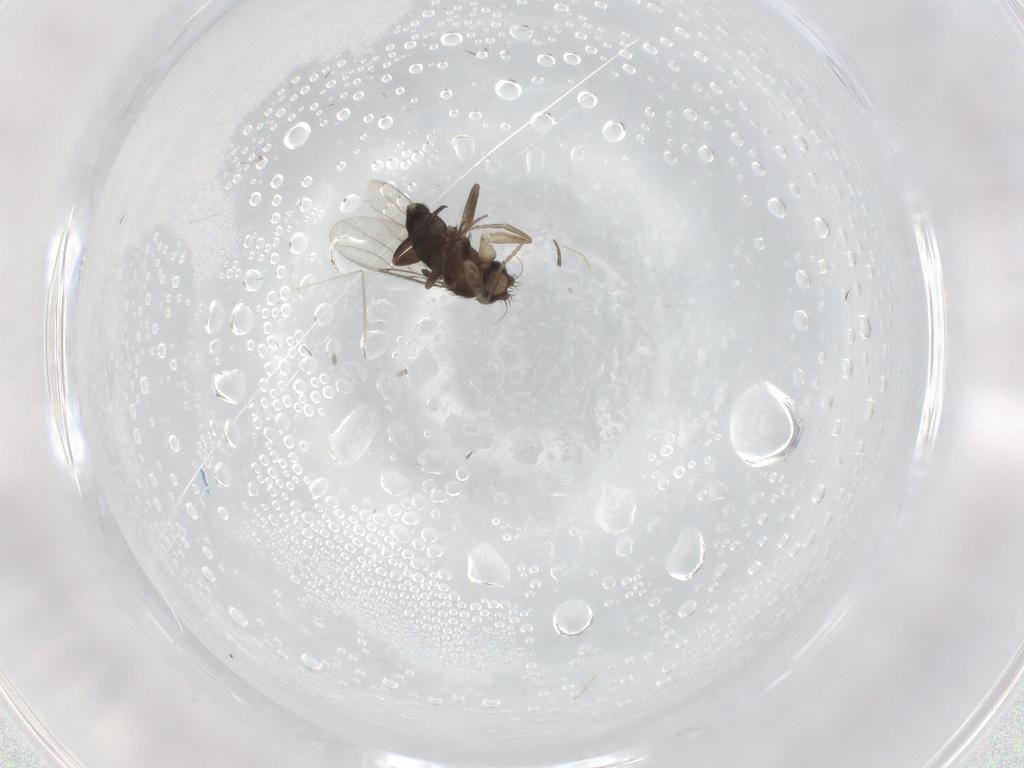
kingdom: Animalia
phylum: Arthropoda
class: Insecta
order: Diptera
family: Phoridae
